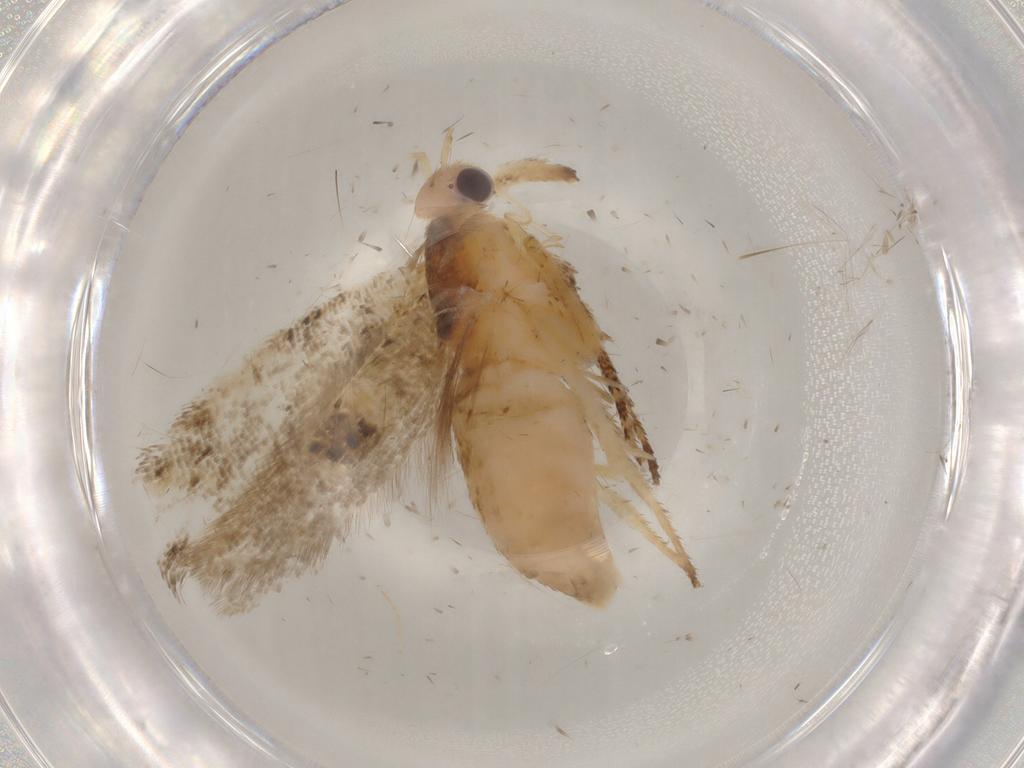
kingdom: Animalia
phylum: Arthropoda
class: Insecta
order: Lepidoptera
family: Ypsolophidae
